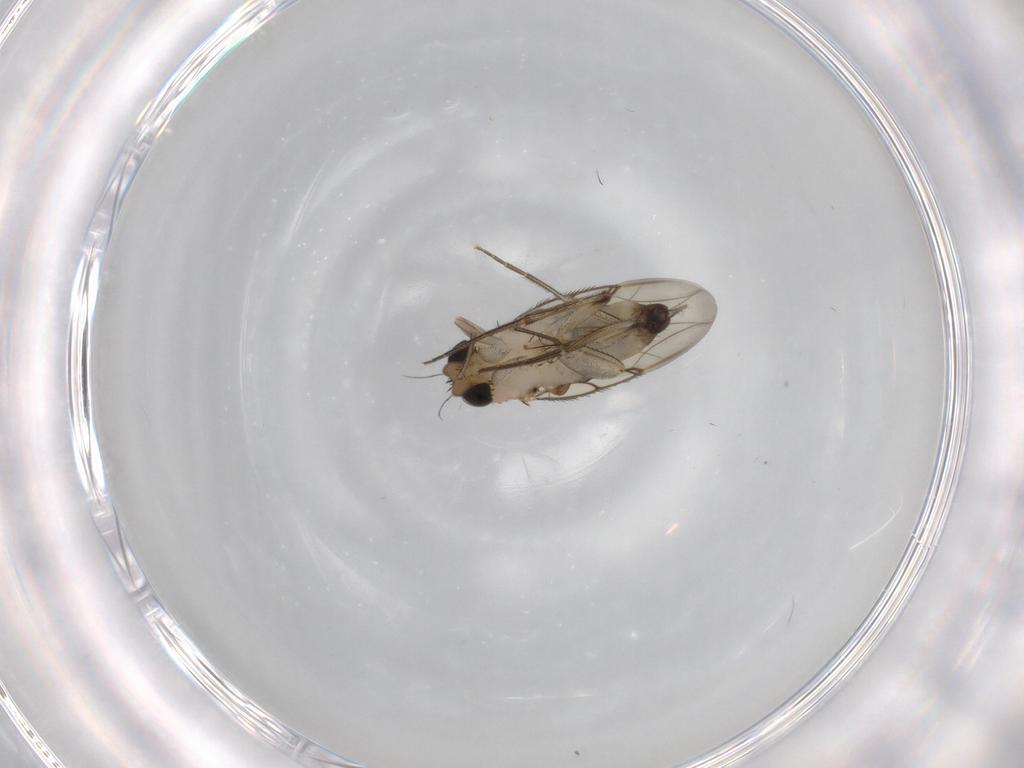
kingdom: Animalia
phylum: Arthropoda
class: Insecta
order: Diptera
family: Phoridae
